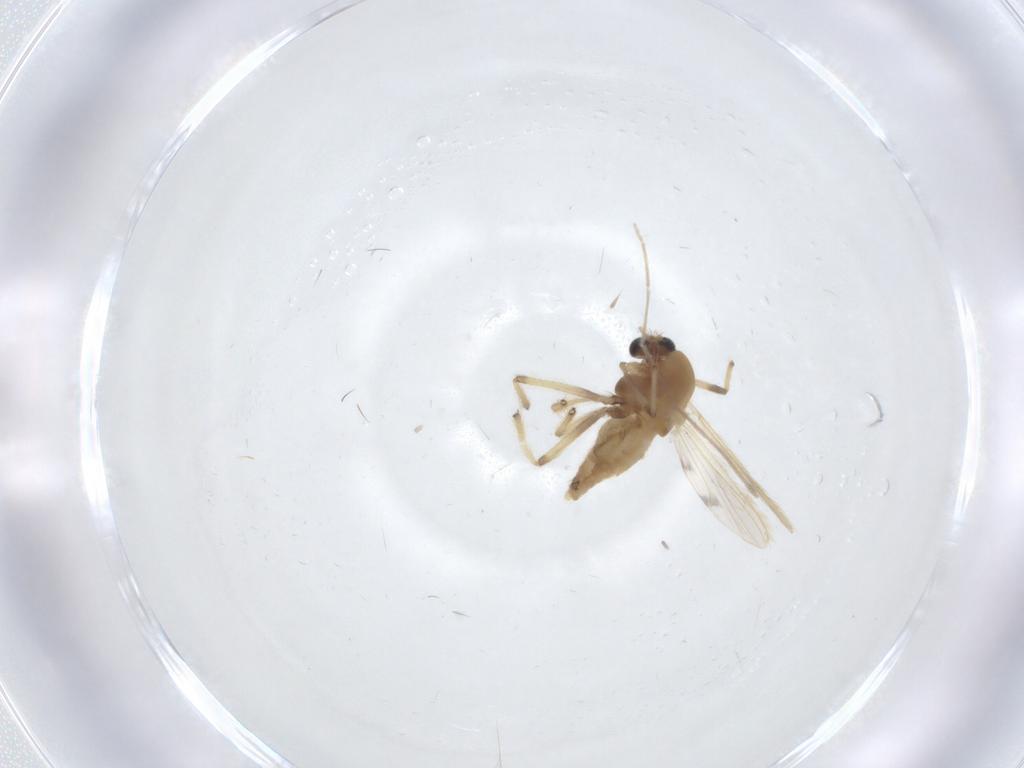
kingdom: Animalia
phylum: Arthropoda
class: Insecta
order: Diptera
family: Chironomidae
